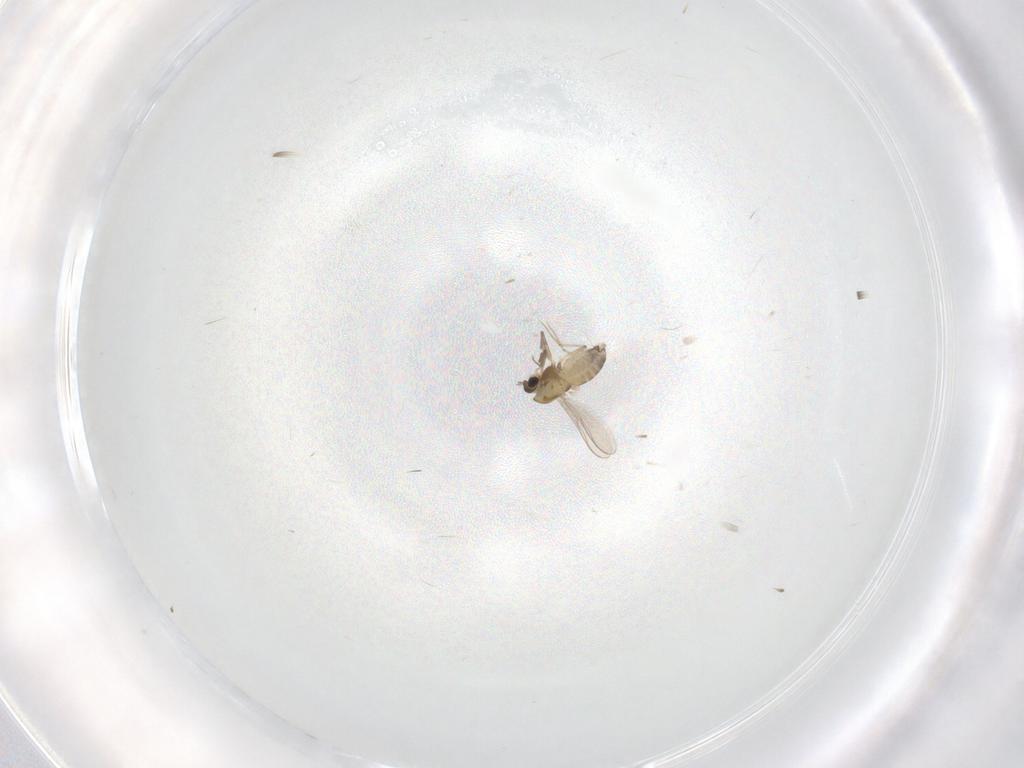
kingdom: Animalia
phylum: Arthropoda
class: Insecta
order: Diptera
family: Chironomidae
